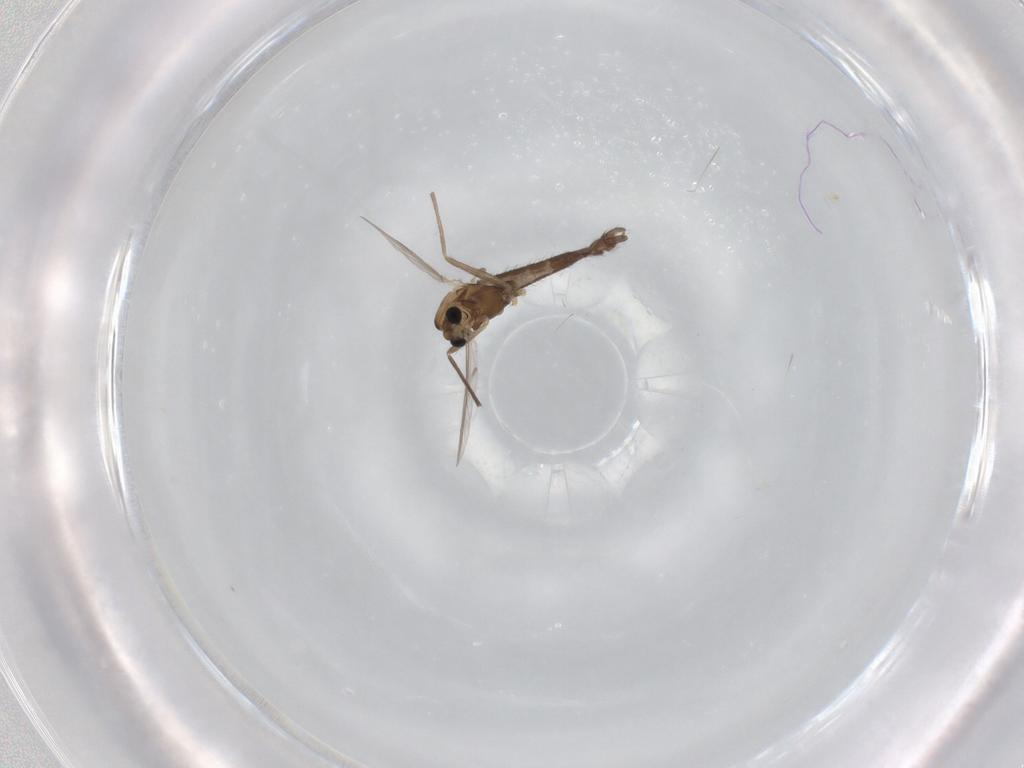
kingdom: Animalia
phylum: Arthropoda
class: Insecta
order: Diptera
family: Chironomidae
